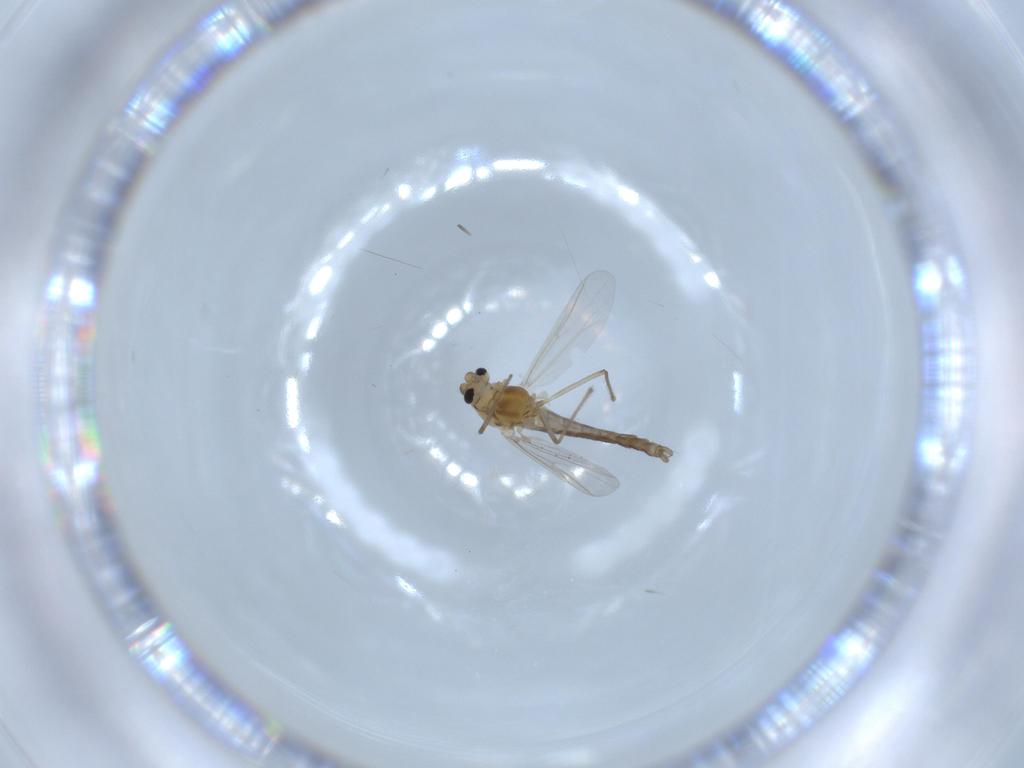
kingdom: Animalia
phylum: Arthropoda
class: Insecta
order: Diptera
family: Chironomidae
